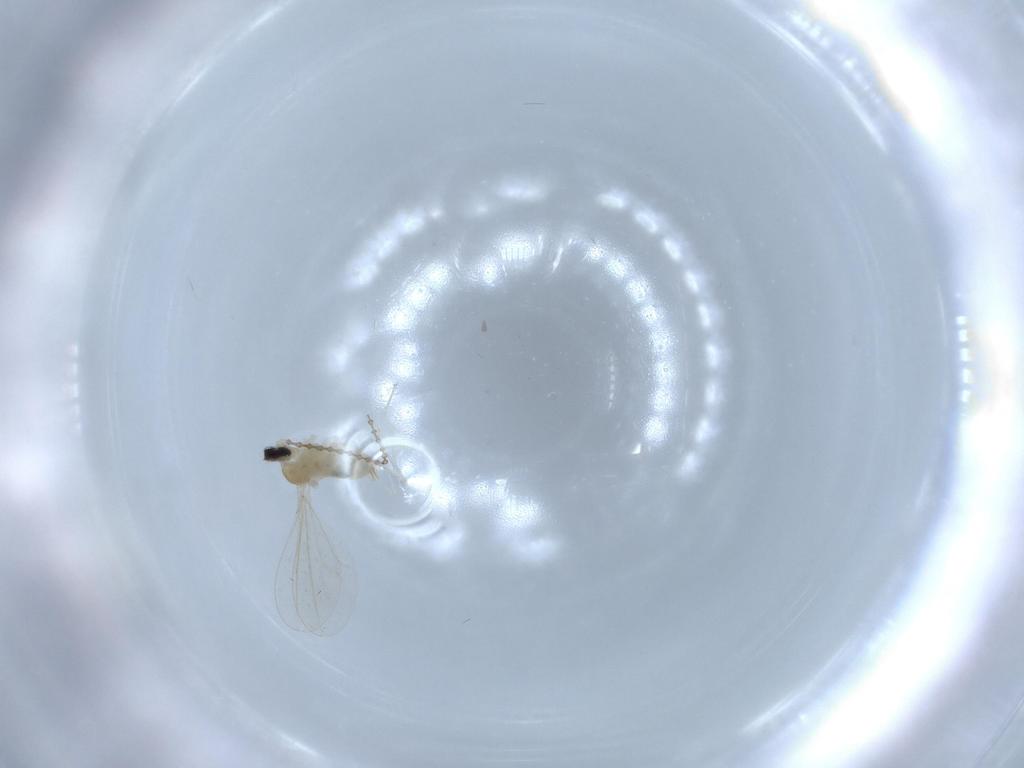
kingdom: Animalia
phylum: Arthropoda
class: Insecta
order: Diptera
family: Cecidomyiidae
